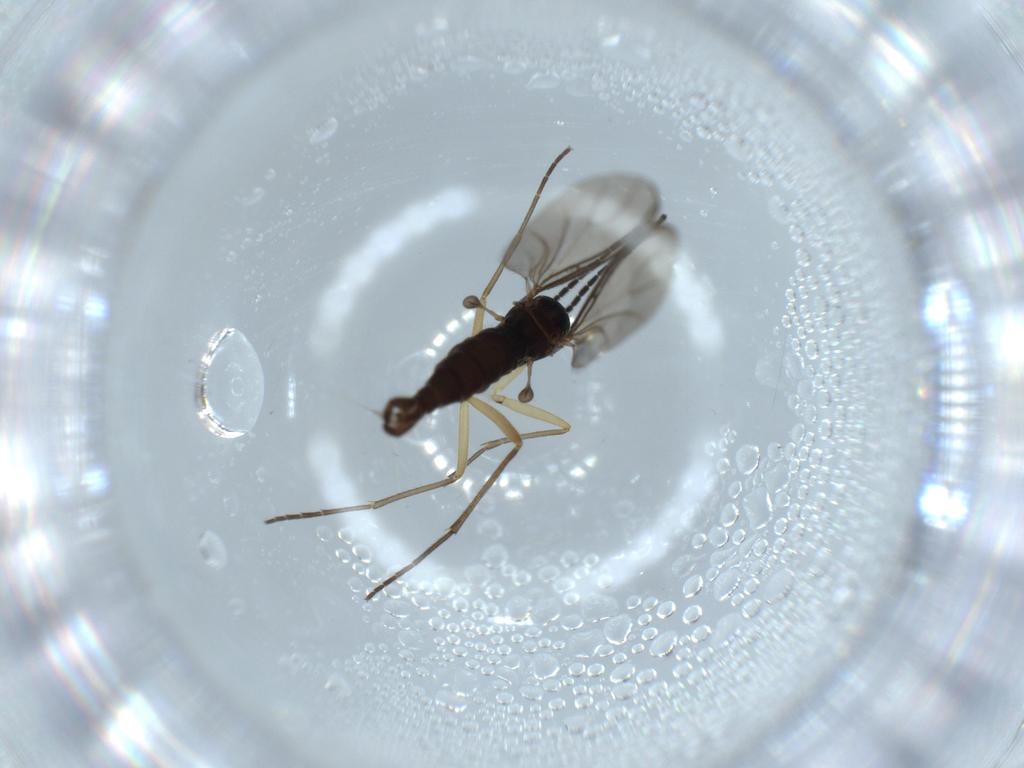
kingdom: Animalia
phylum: Arthropoda
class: Insecta
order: Diptera
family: Sciaridae
